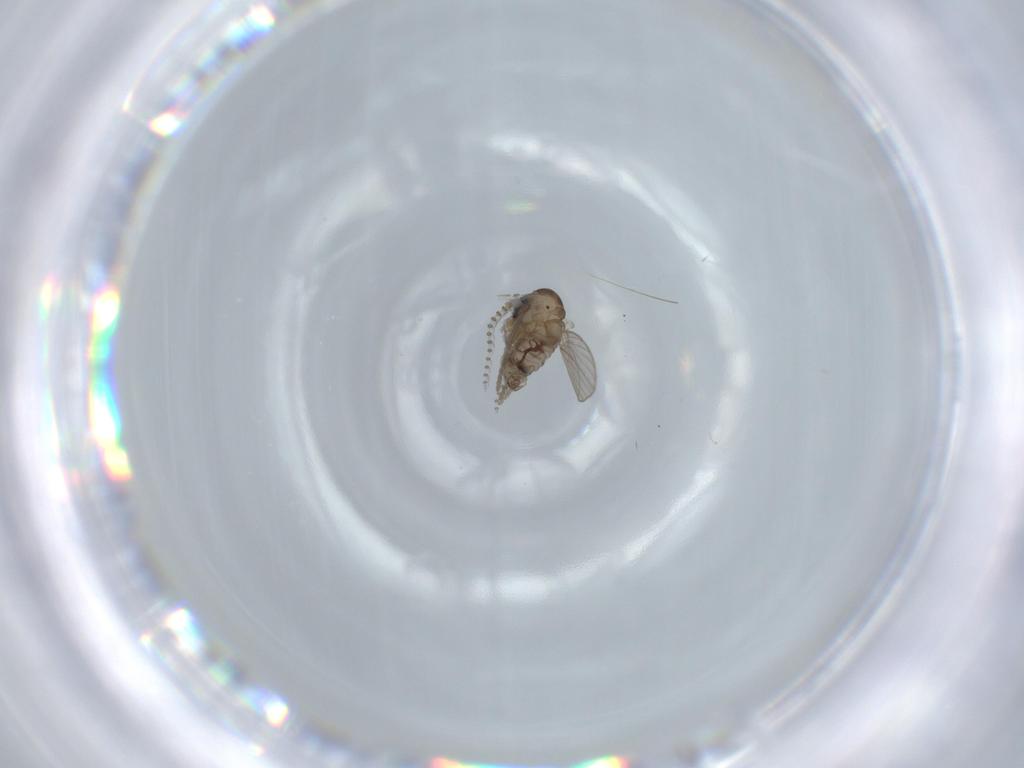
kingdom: Animalia
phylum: Arthropoda
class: Insecta
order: Diptera
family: Psychodidae
